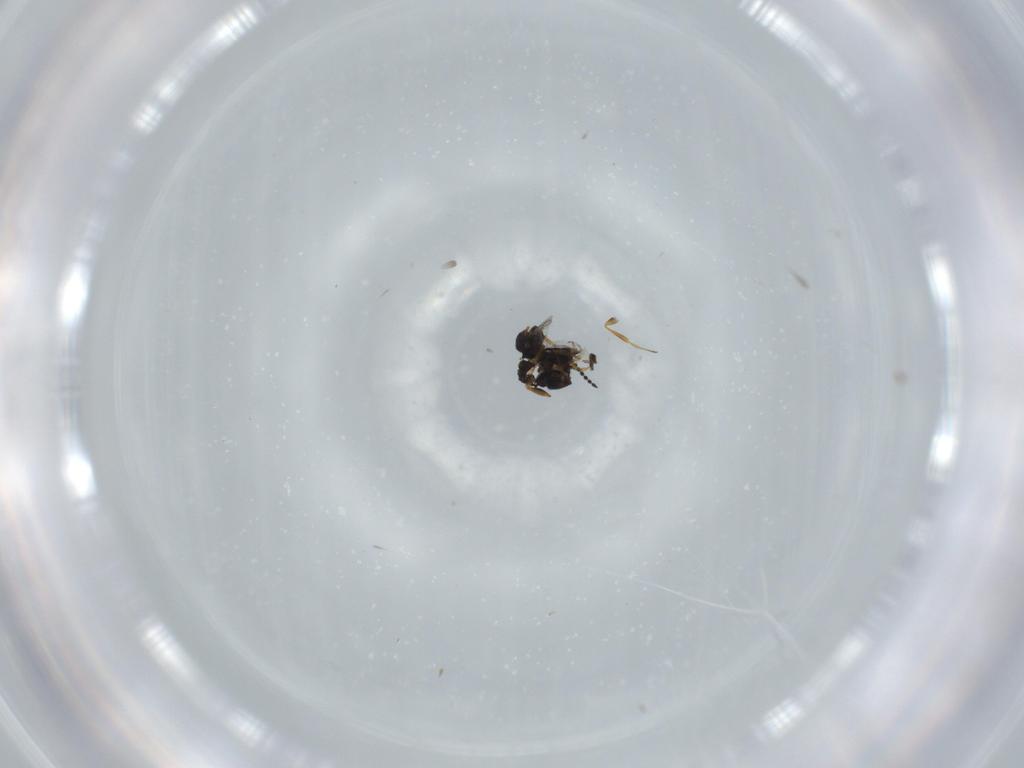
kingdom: Animalia
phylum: Arthropoda
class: Insecta
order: Hymenoptera
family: Scelionidae
